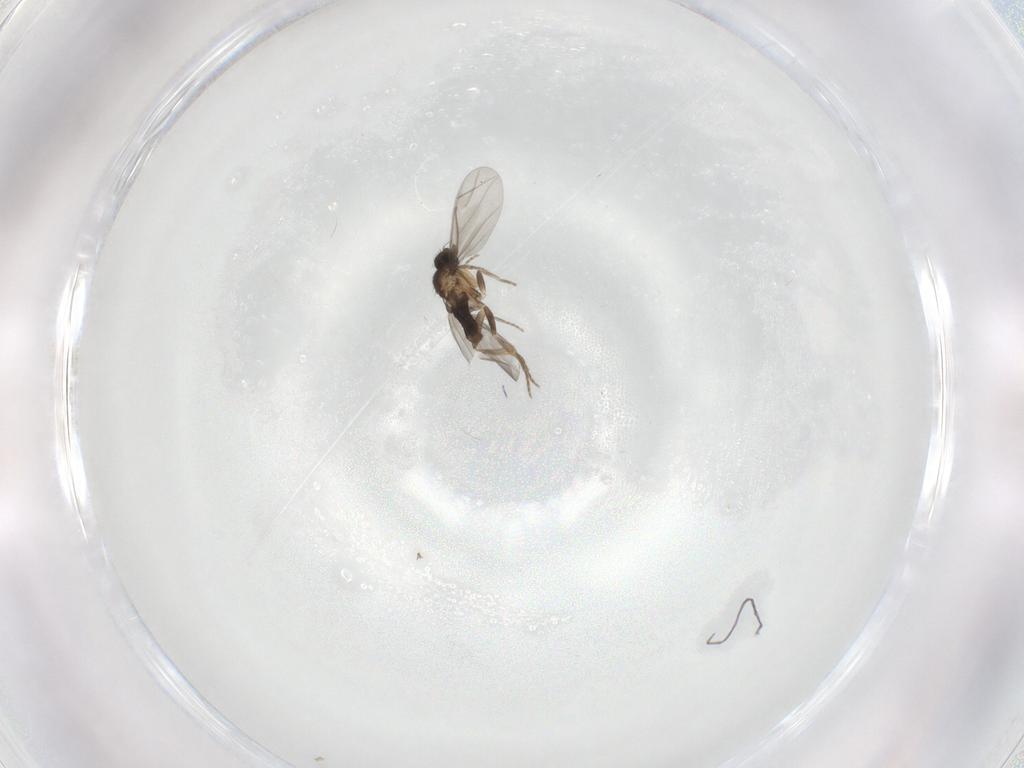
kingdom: Animalia
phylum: Arthropoda
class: Insecta
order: Diptera
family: Phoridae
